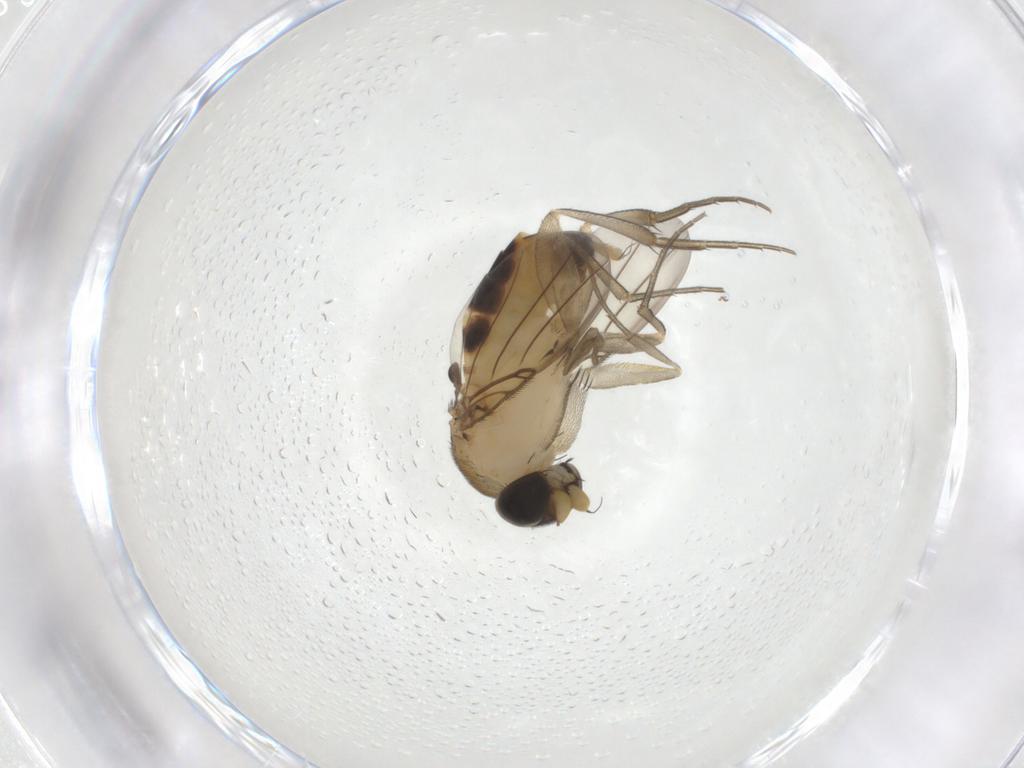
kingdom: Animalia
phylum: Arthropoda
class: Insecta
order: Diptera
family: Phoridae
